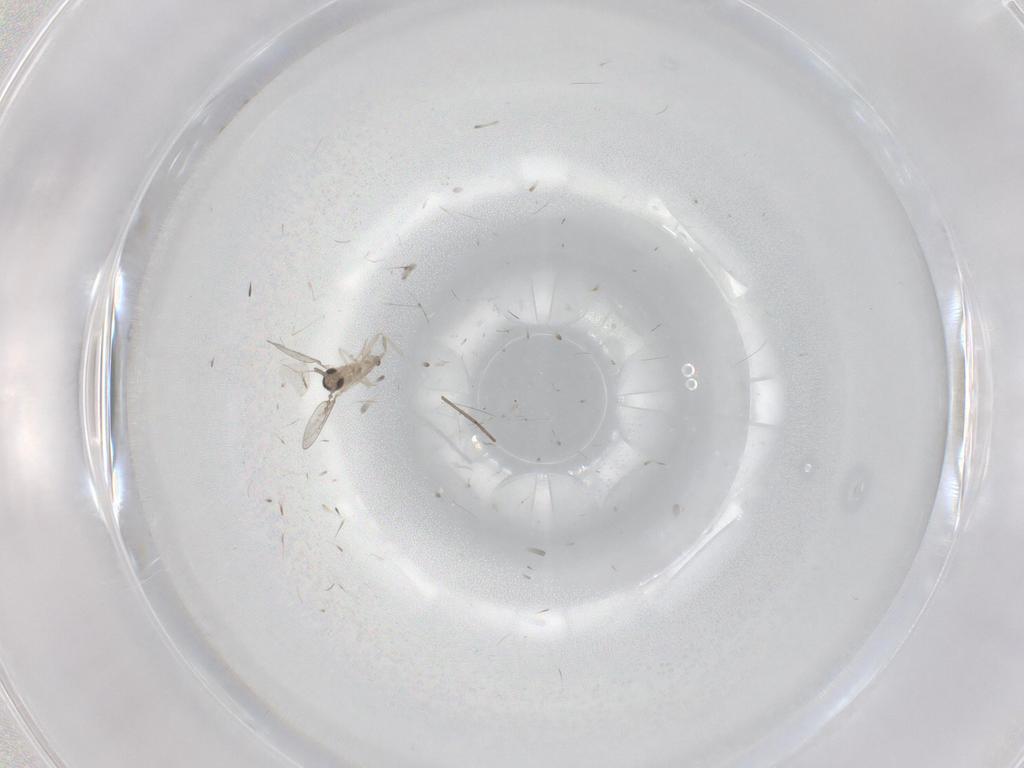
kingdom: Animalia
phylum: Arthropoda
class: Insecta
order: Diptera
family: Cecidomyiidae
